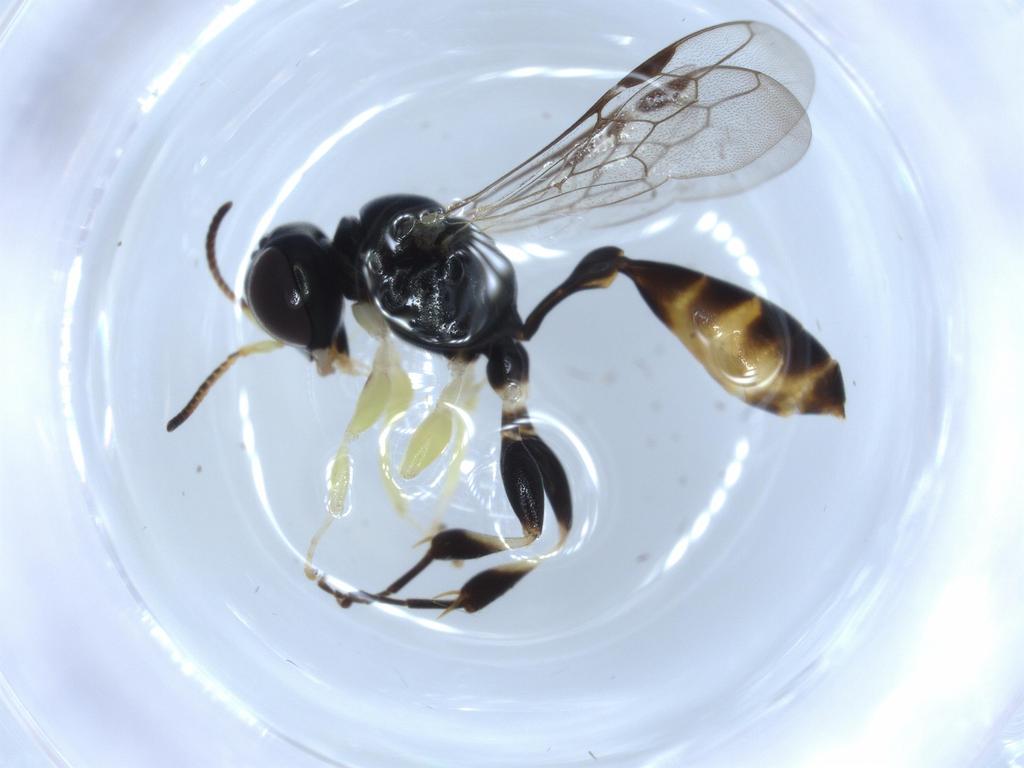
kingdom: Animalia
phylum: Arthropoda
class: Insecta
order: Hymenoptera
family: Crabronidae
